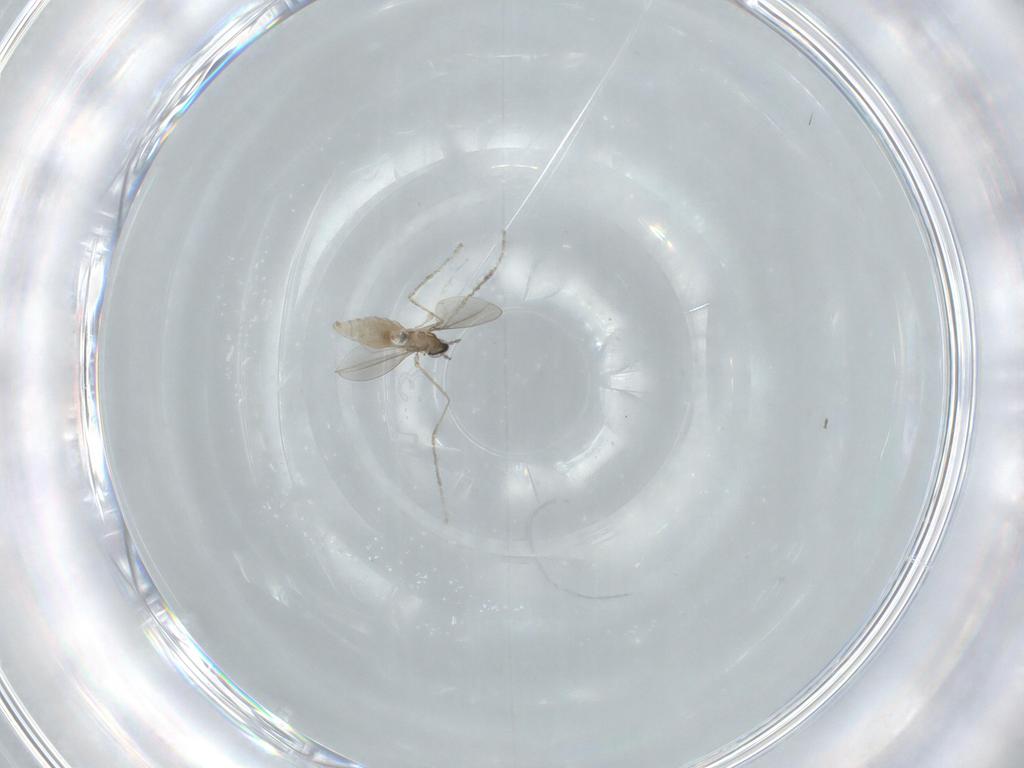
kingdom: Animalia
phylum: Arthropoda
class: Insecta
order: Diptera
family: Cecidomyiidae
